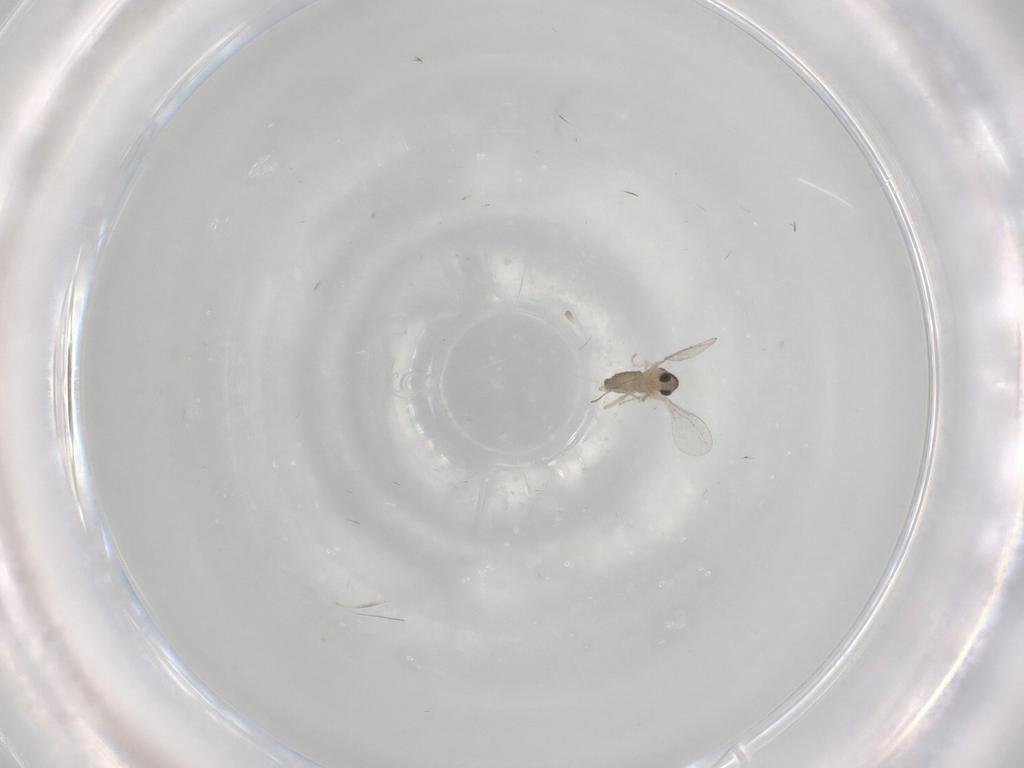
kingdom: Animalia
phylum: Arthropoda
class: Insecta
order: Diptera
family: Cecidomyiidae
